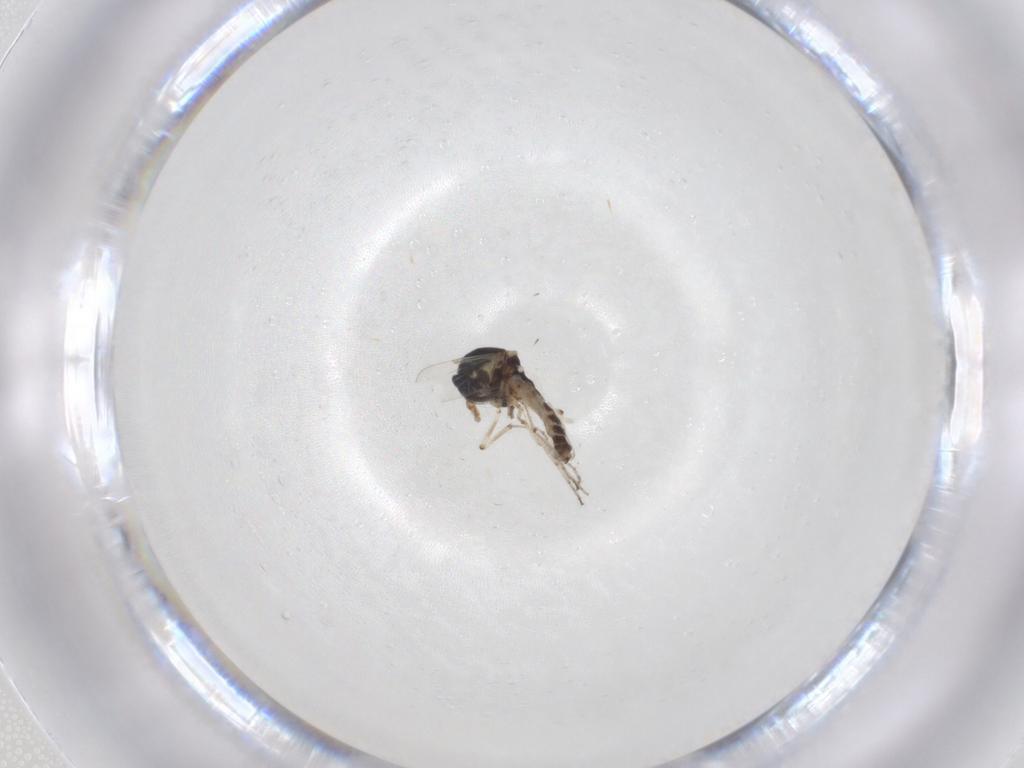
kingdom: Animalia
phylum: Arthropoda
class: Insecta
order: Diptera
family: Ceratopogonidae
